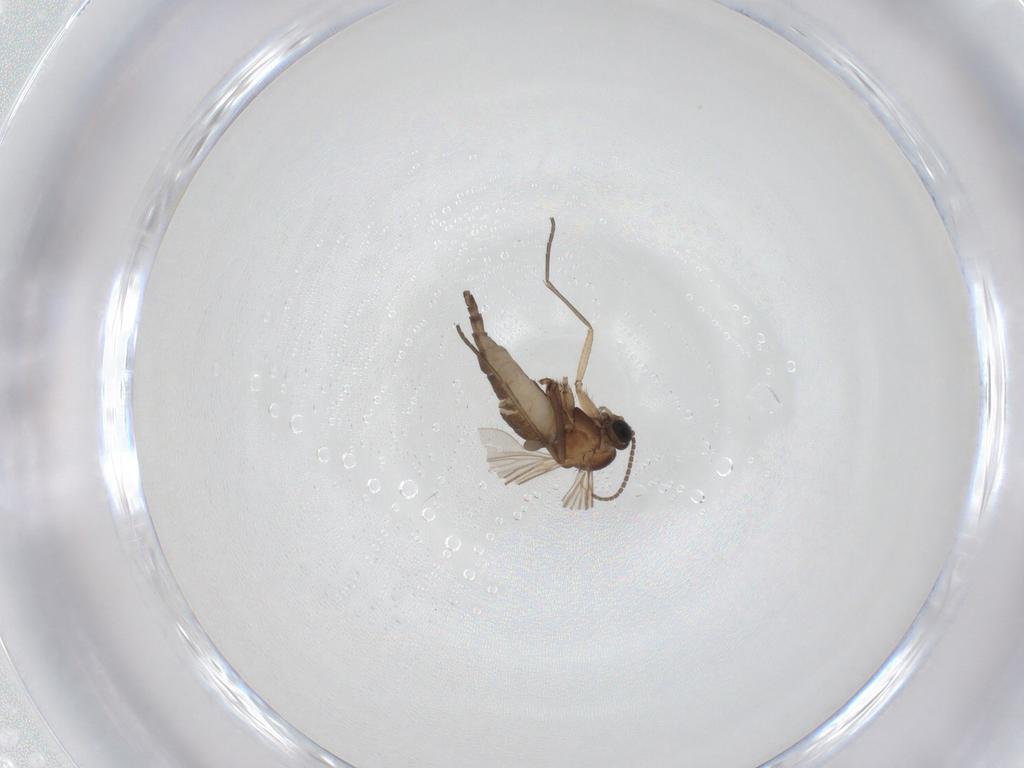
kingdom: Animalia
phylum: Arthropoda
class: Insecta
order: Diptera
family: Sciaridae
